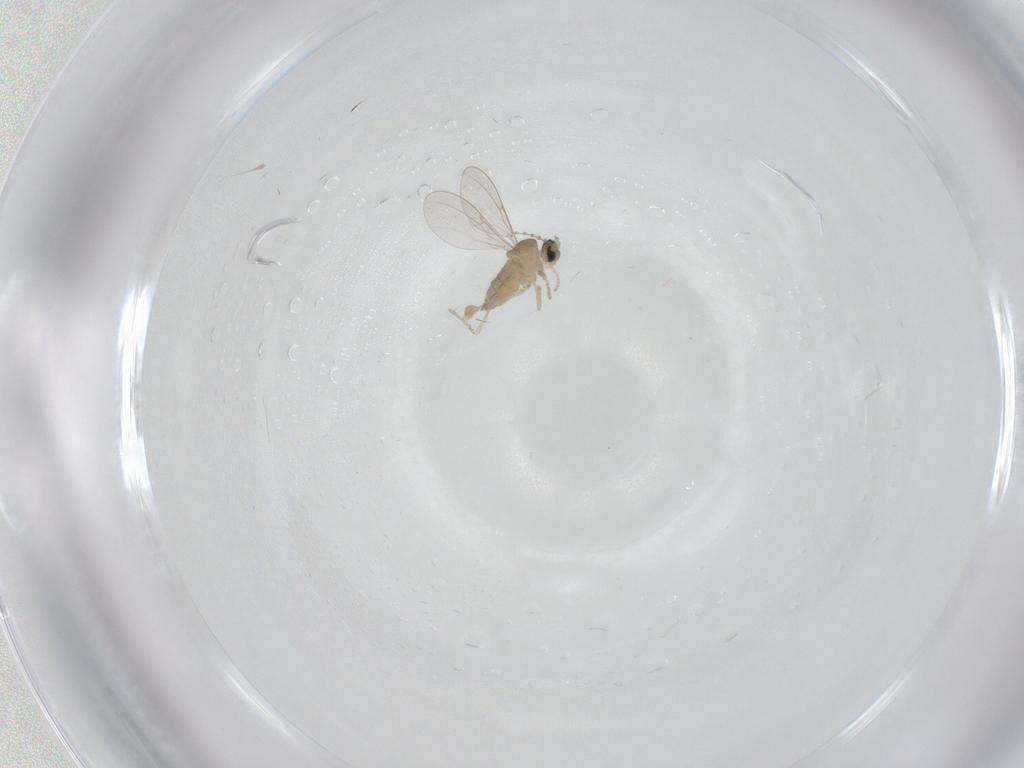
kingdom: Animalia
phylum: Arthropoda
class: Insecta
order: Diptera
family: Cecidomyiidae
